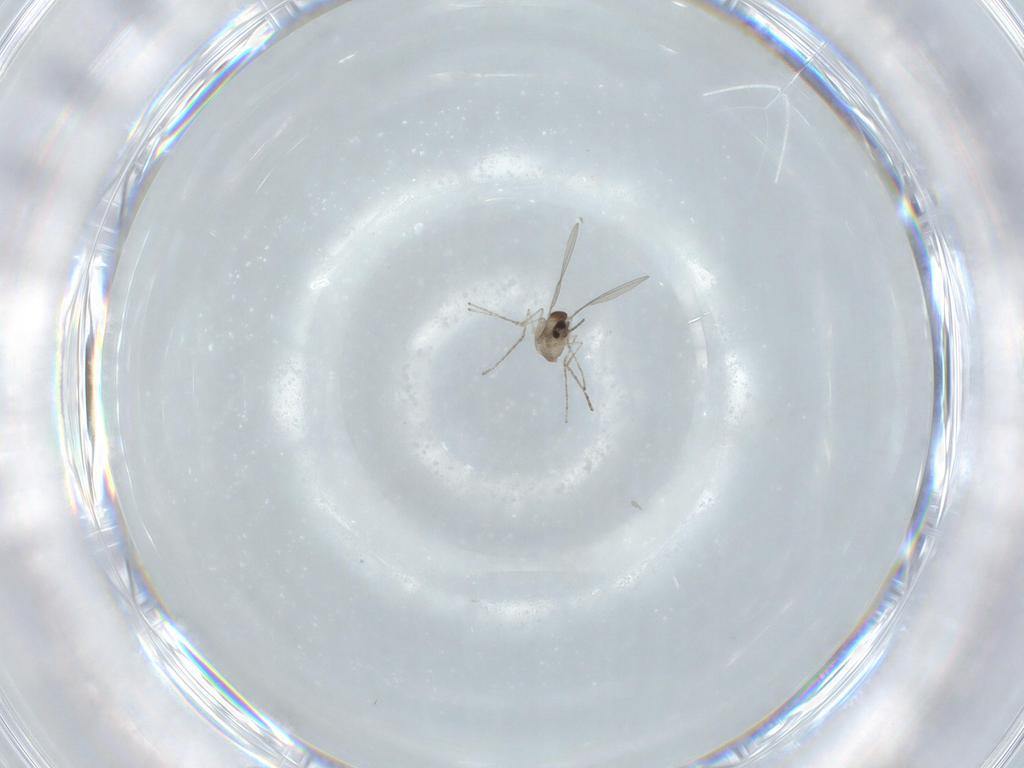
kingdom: Animalia
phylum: Arthropoda
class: Insecta
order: Diptera
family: Cecidomyiidae
